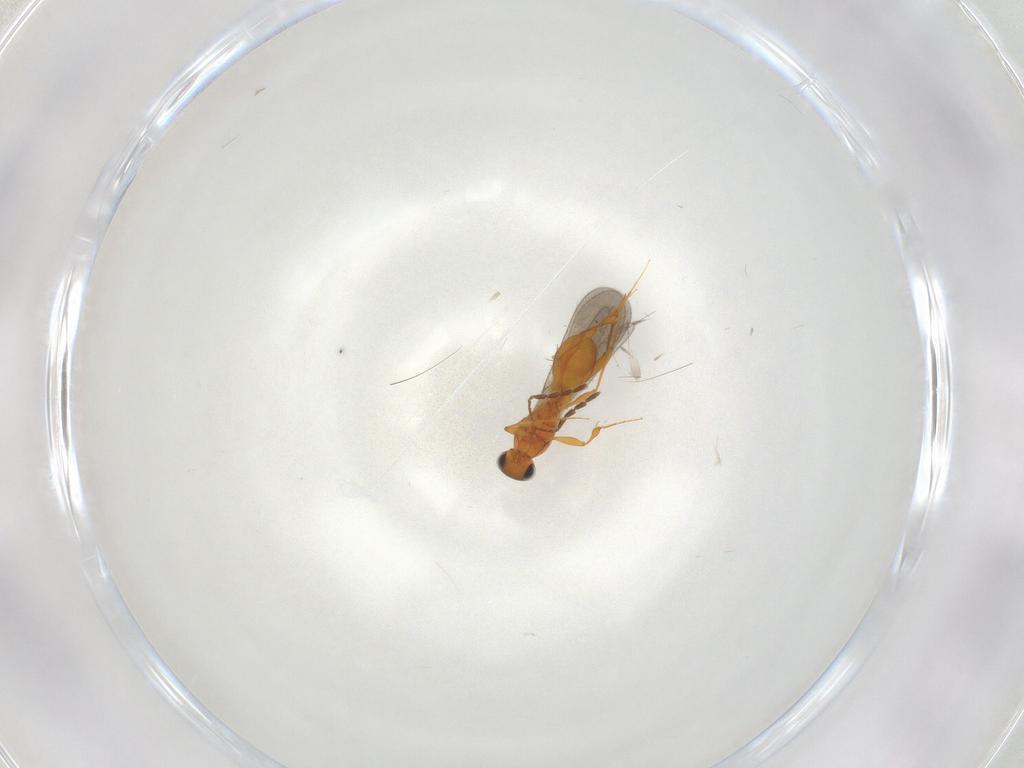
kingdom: Animalia
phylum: Arthropoda
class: Insecta
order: Hymenoptera
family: Platygastridae
